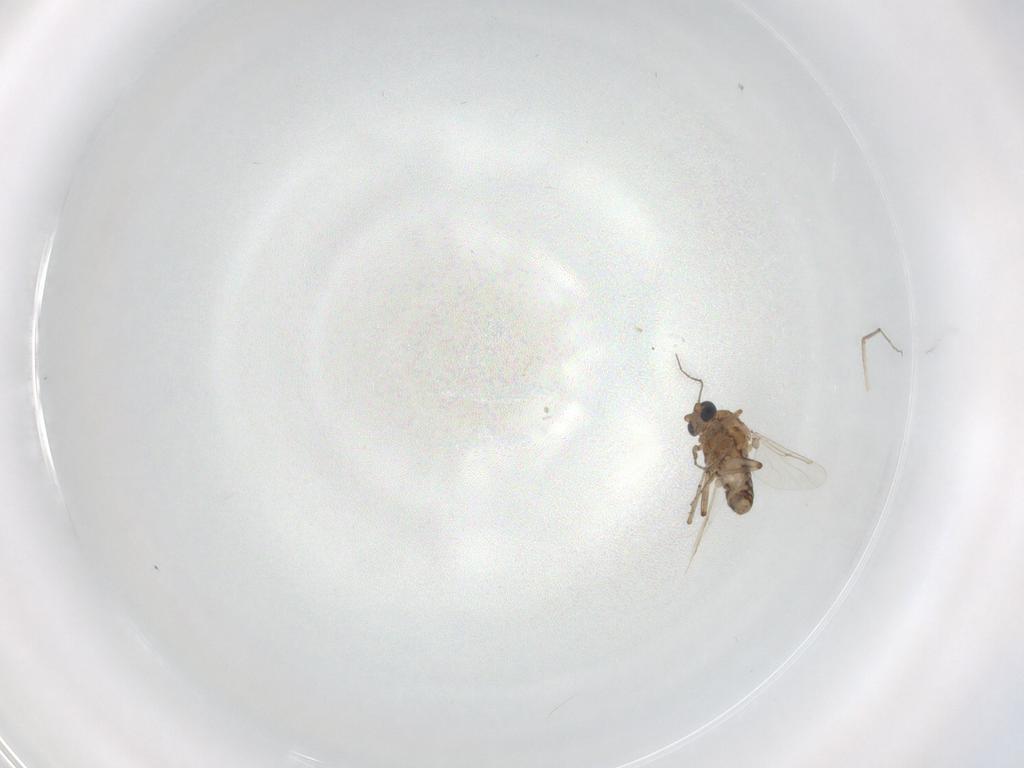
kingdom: Animalia
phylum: Arthropoda
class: Insecta
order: Diptera
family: Ceratopogonidae
